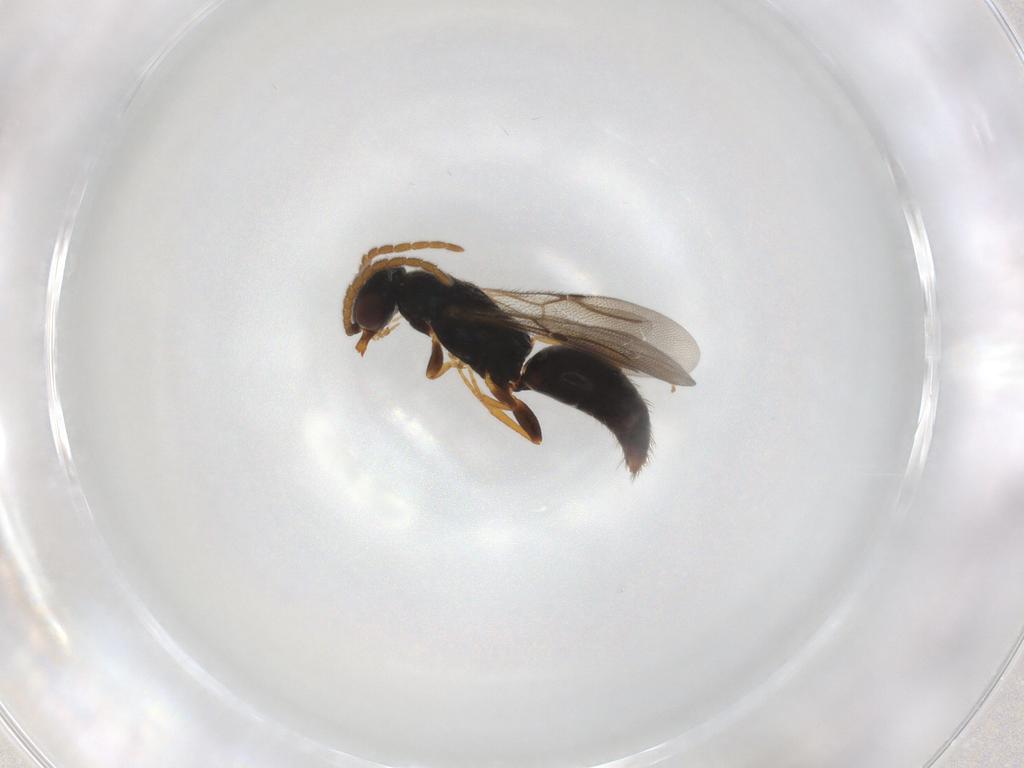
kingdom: Animalia
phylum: Arthropoda
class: Insecta
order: Hymenoptera
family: Bethylidae
